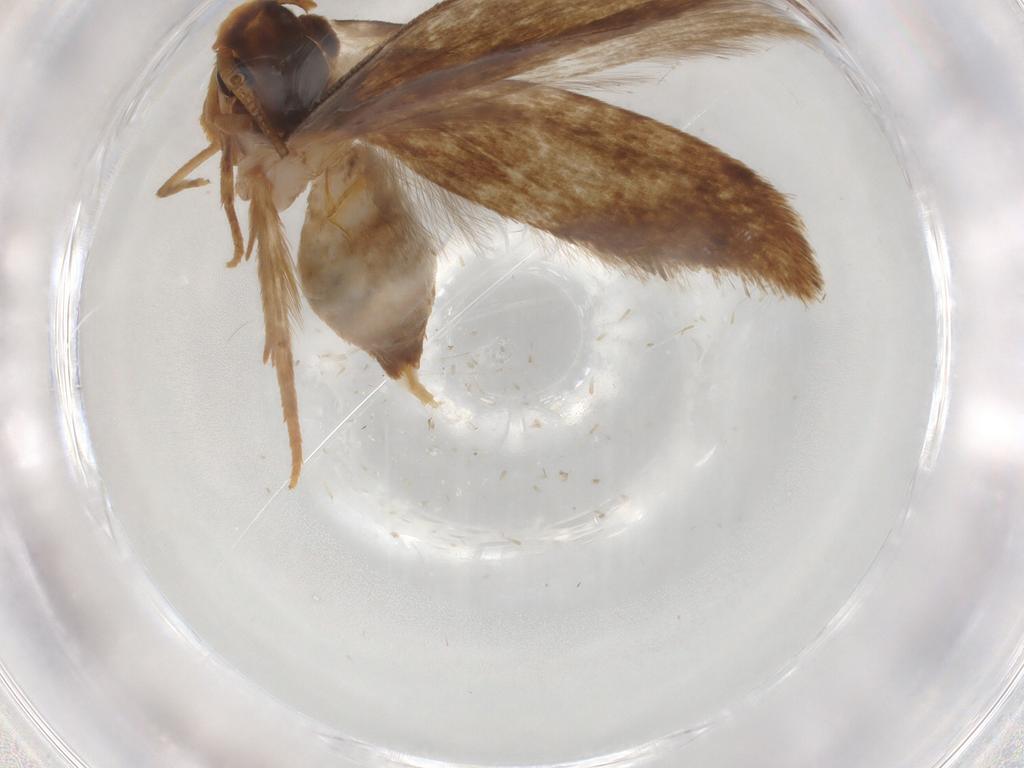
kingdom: Animalia
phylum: Arthropoda
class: Insecta
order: Lepidoptera
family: Tineidae
